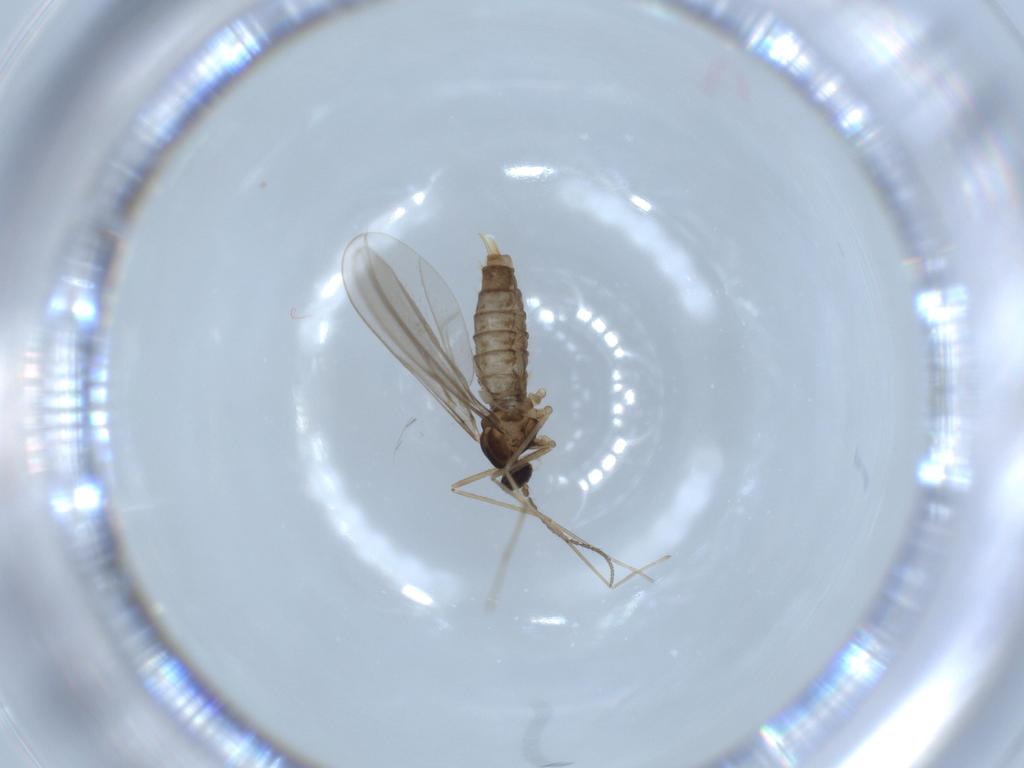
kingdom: Animalia
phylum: Arthropoda
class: Insecta
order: Diptera
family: Cecidomyiidae
